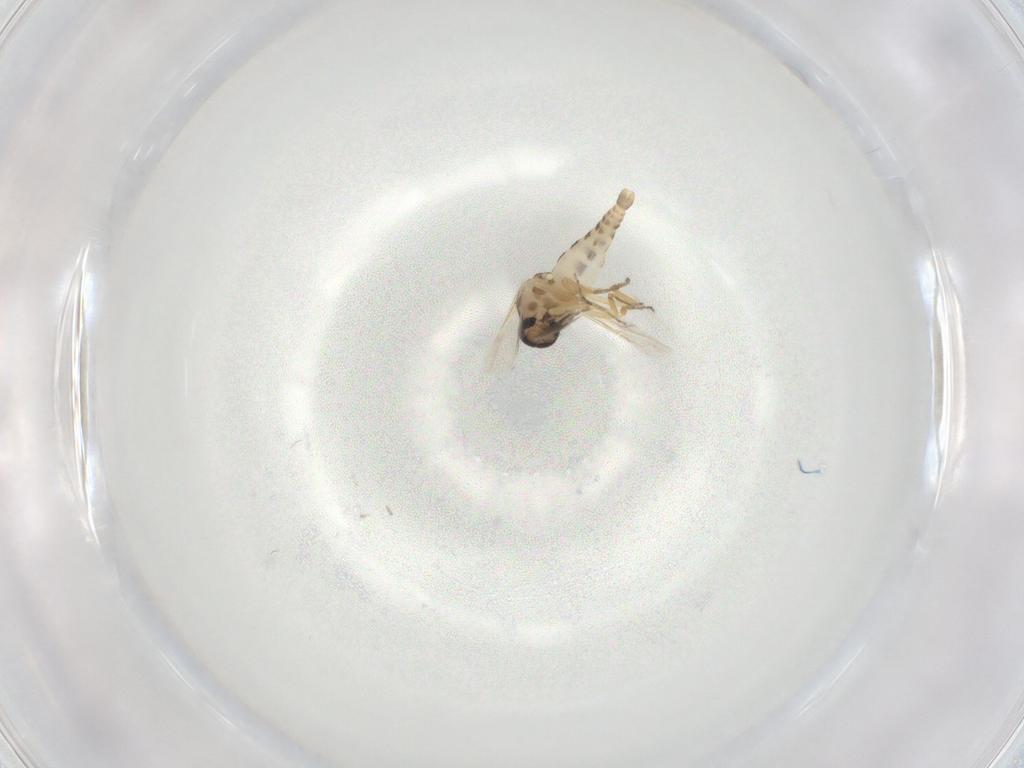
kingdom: Animalia
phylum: Arthropoda
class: Insecta
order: Diptera
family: Ceratopogonidae
